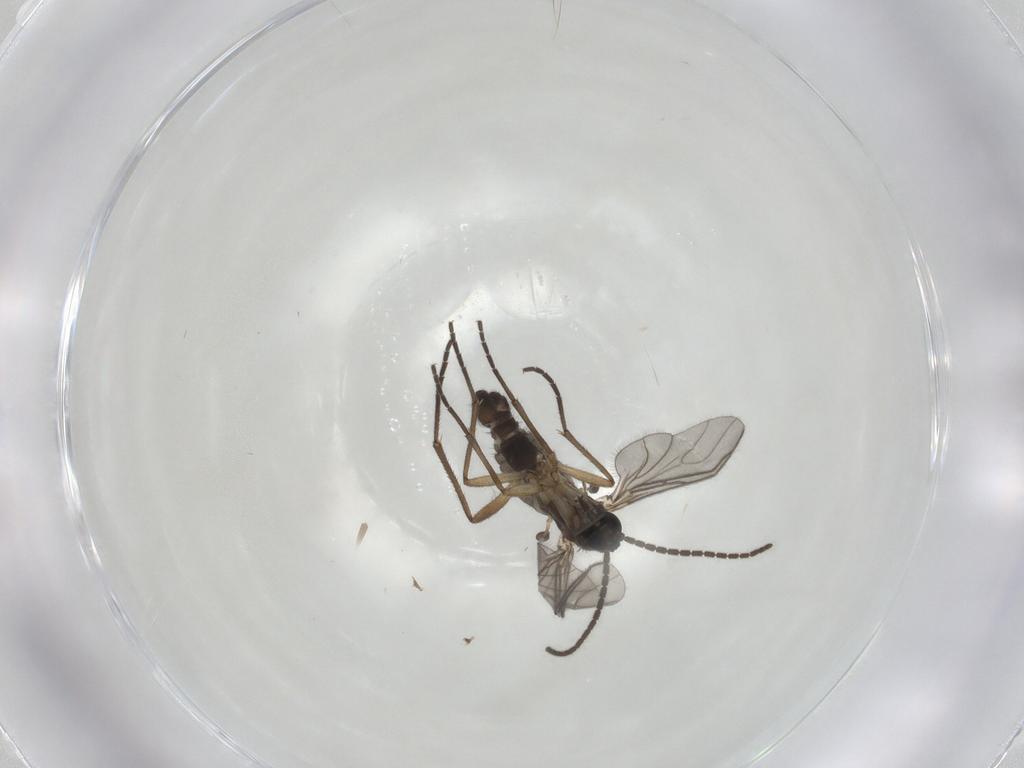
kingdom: Animalia
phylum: Arthropoda
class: Insecta
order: Diptera
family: Sciaridae
